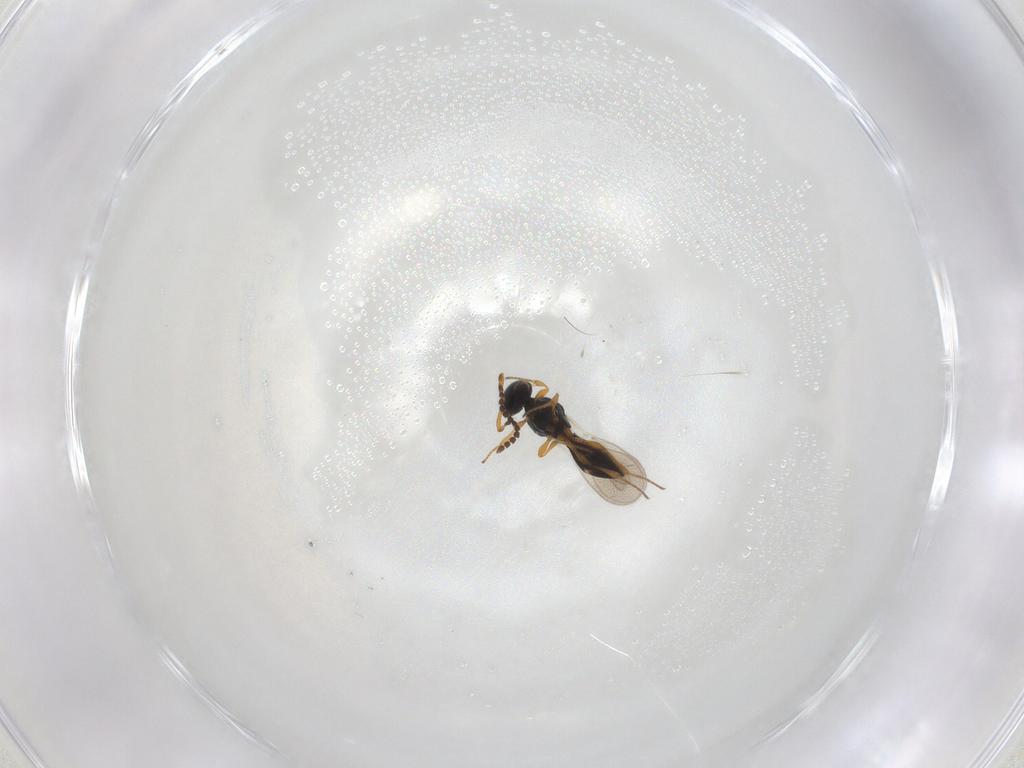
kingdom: Animalia
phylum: Arthropoda
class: Insecta
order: Hymenoptera
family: Platygastridae
